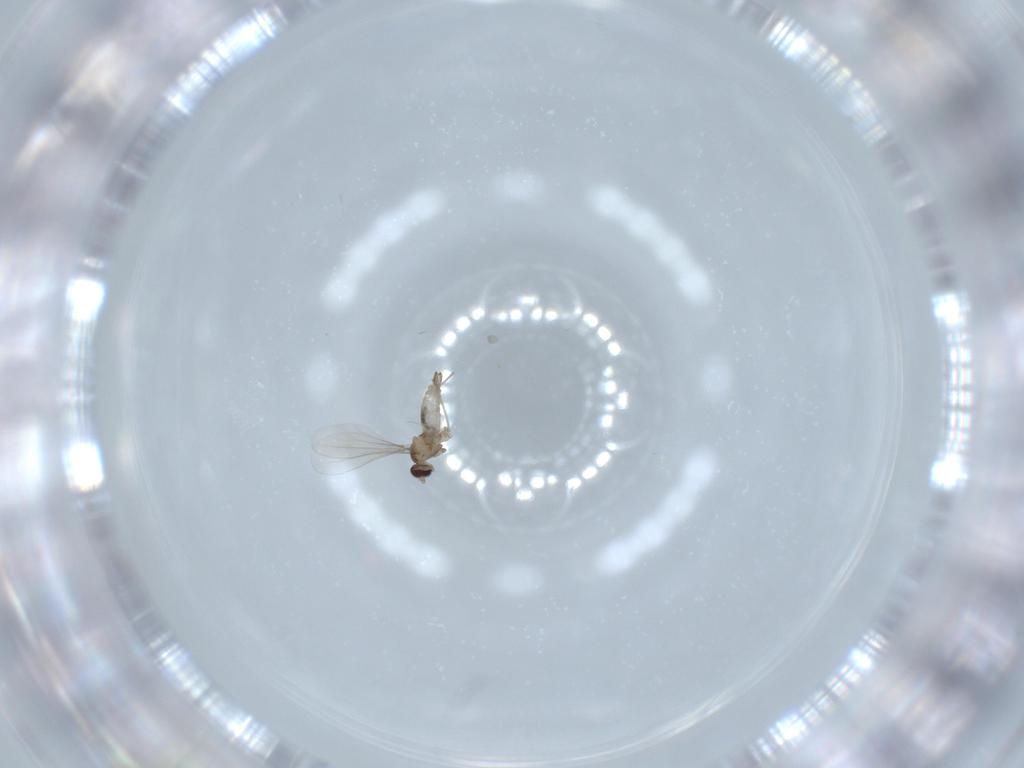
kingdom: Animalia
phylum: Arthropoda
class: Insecta
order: Diptera
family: Cecidomyiidae
